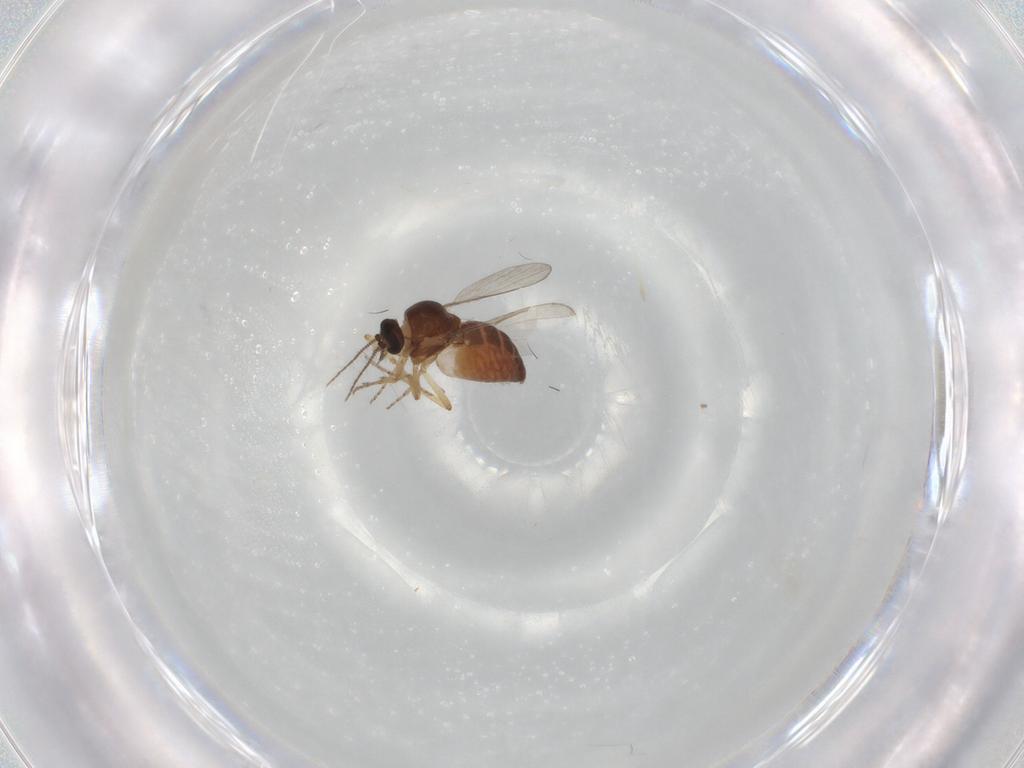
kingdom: Animalia
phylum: Arthropoda
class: Insecta
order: Diptera
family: Ceratopogonidae
